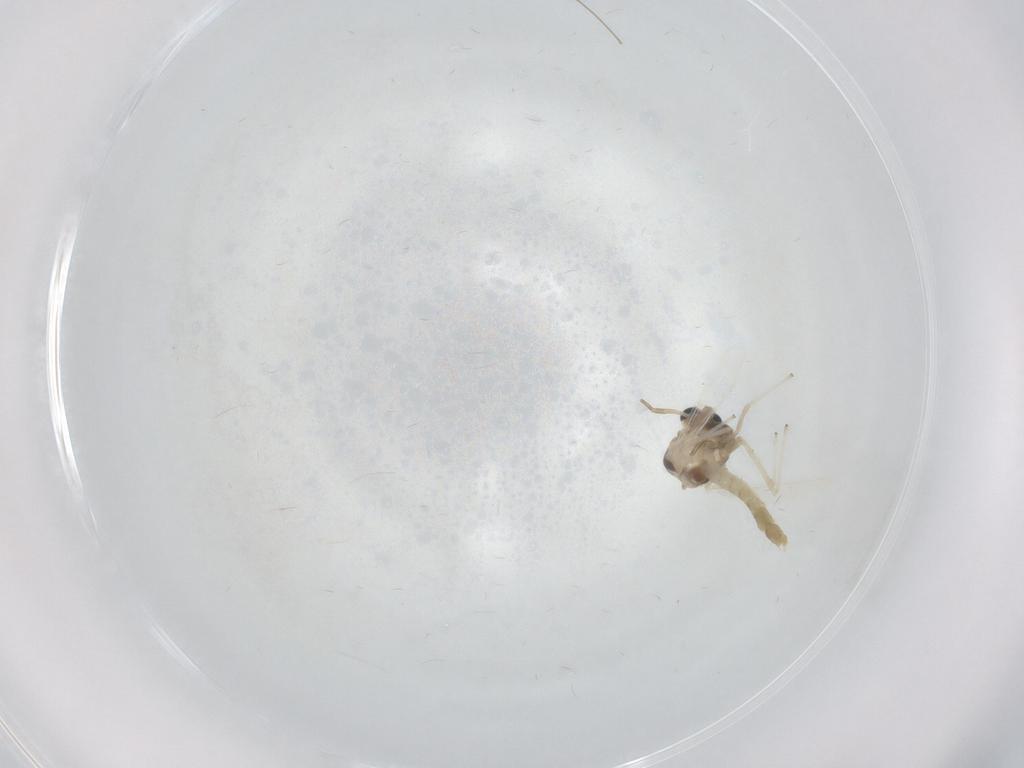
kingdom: Animalia
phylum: Arthropoda
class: Insecta
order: Diptera
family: Chironomidae
